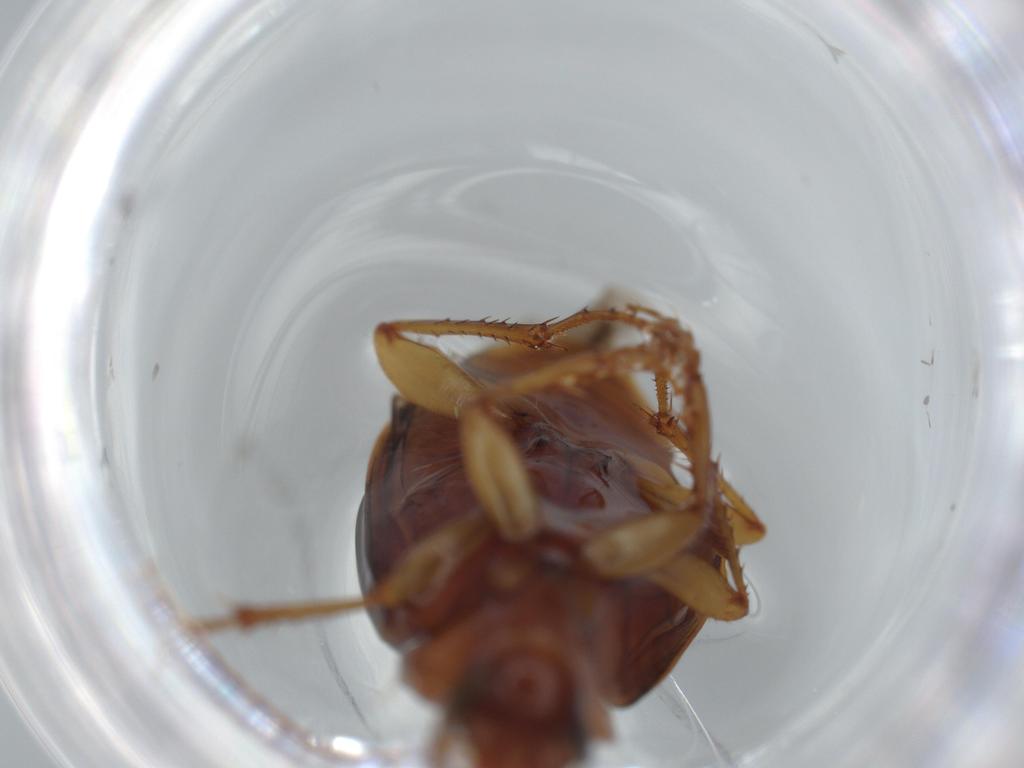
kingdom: Animalia
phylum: Arthropoda
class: Insecta
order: Coleoptera
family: Carabidae
